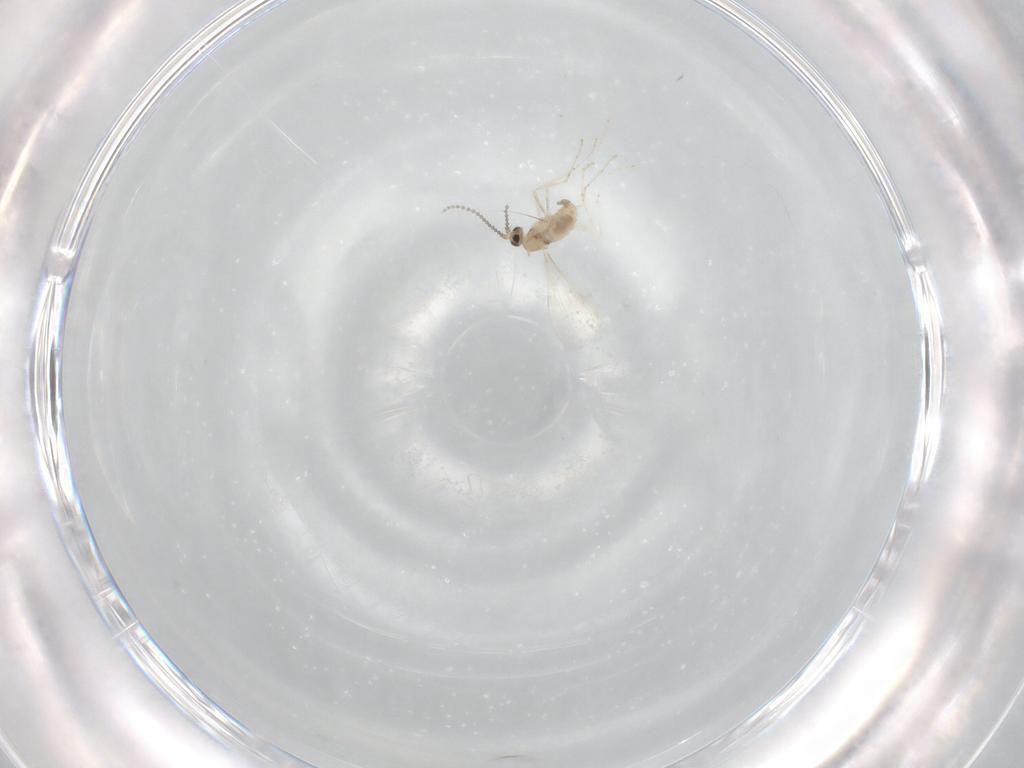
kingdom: Animalia
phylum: Arthropoda
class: Insecta
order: Diptera
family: Cecidomyiidae
